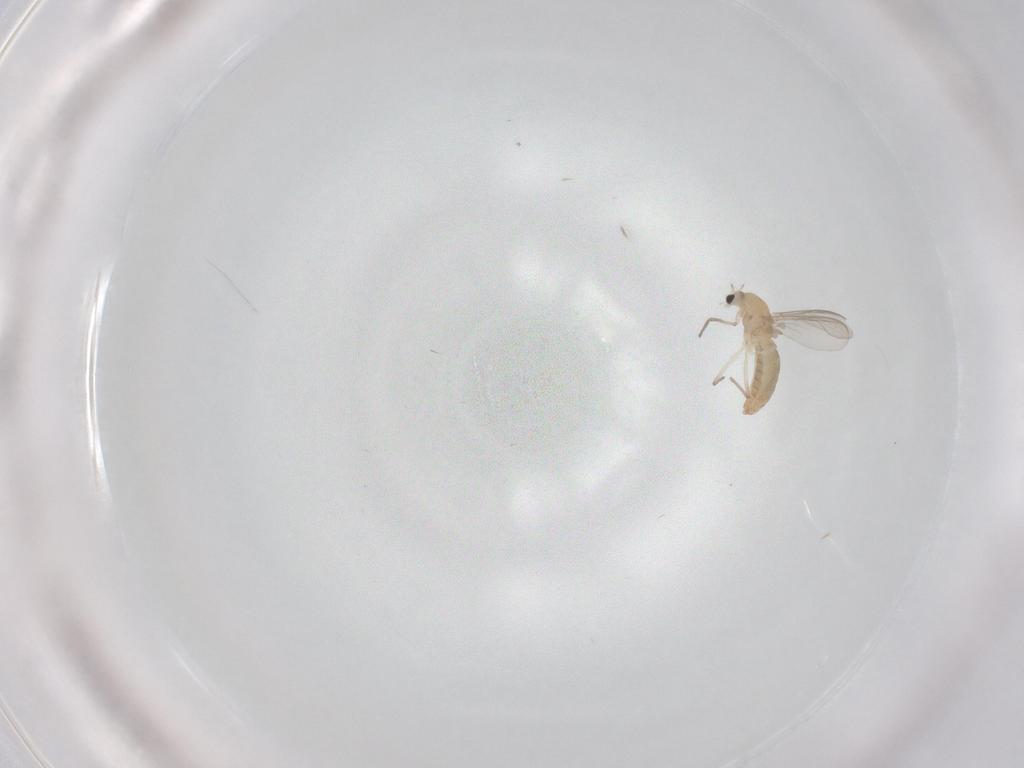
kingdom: Animalia
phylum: Arthropoda
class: Insecta
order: Diptera
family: Chironomidae
